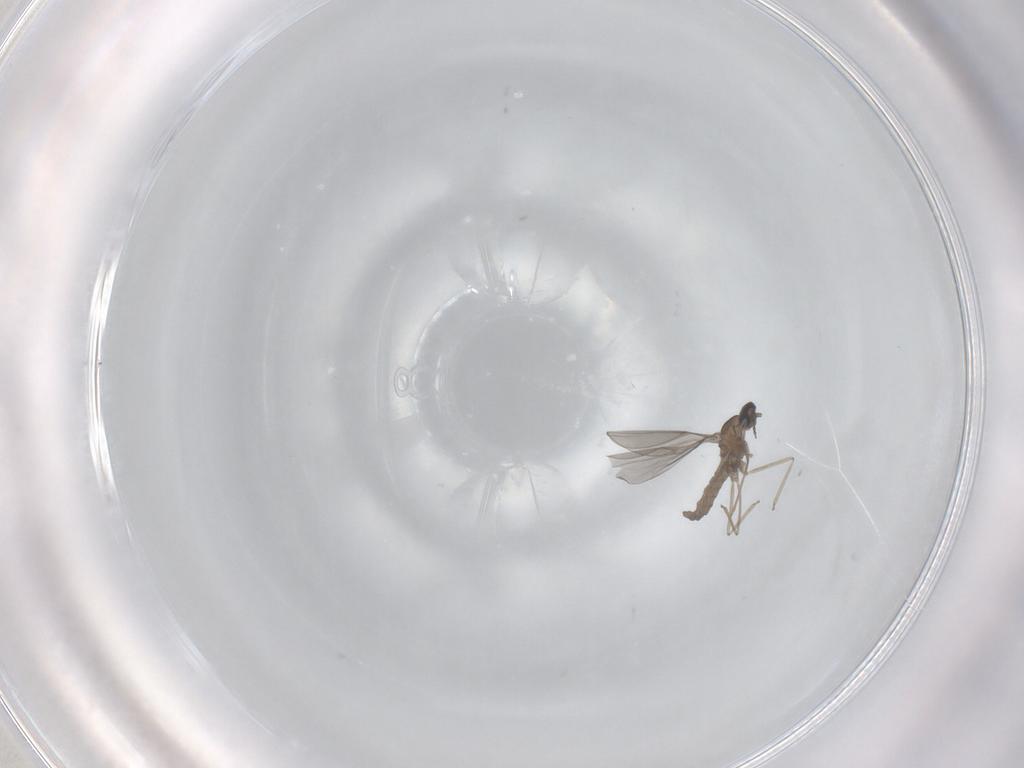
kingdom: Animalia
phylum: Arthropoda
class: Insecta
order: Diptera
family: Cecidomyiidae
